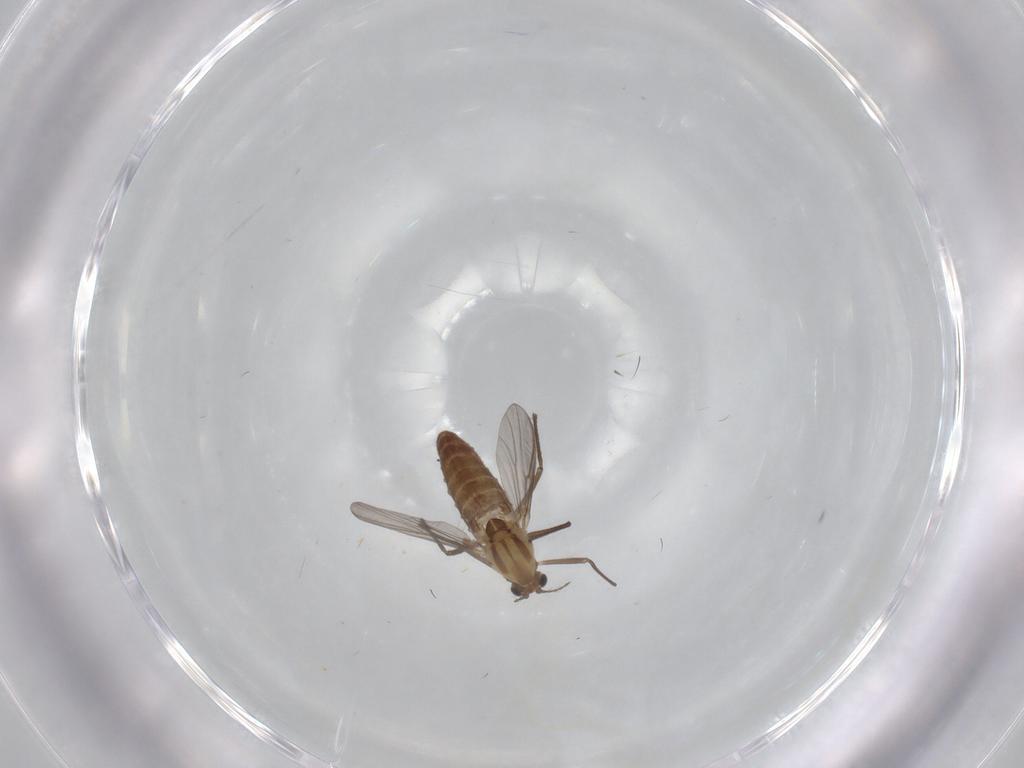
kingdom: Animalia
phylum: Arthropoda
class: Insecta
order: Diptera
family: Chironomidae
